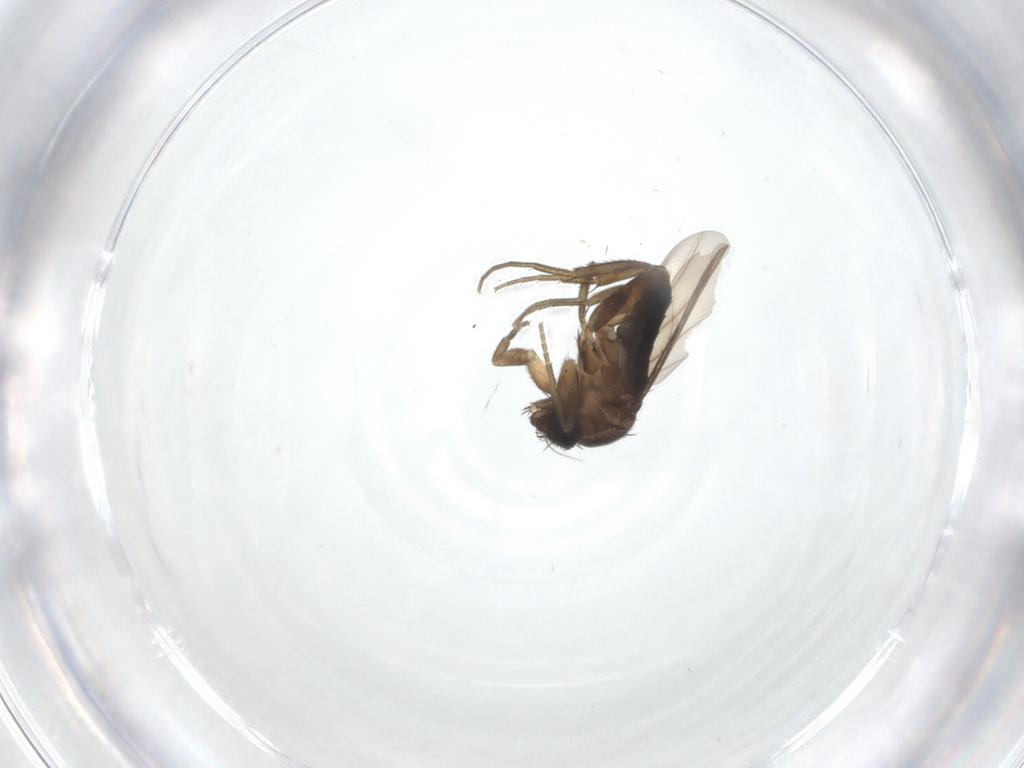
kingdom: Animalia
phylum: Arthropoda
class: Insecta
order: Diptera
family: Phoridae
